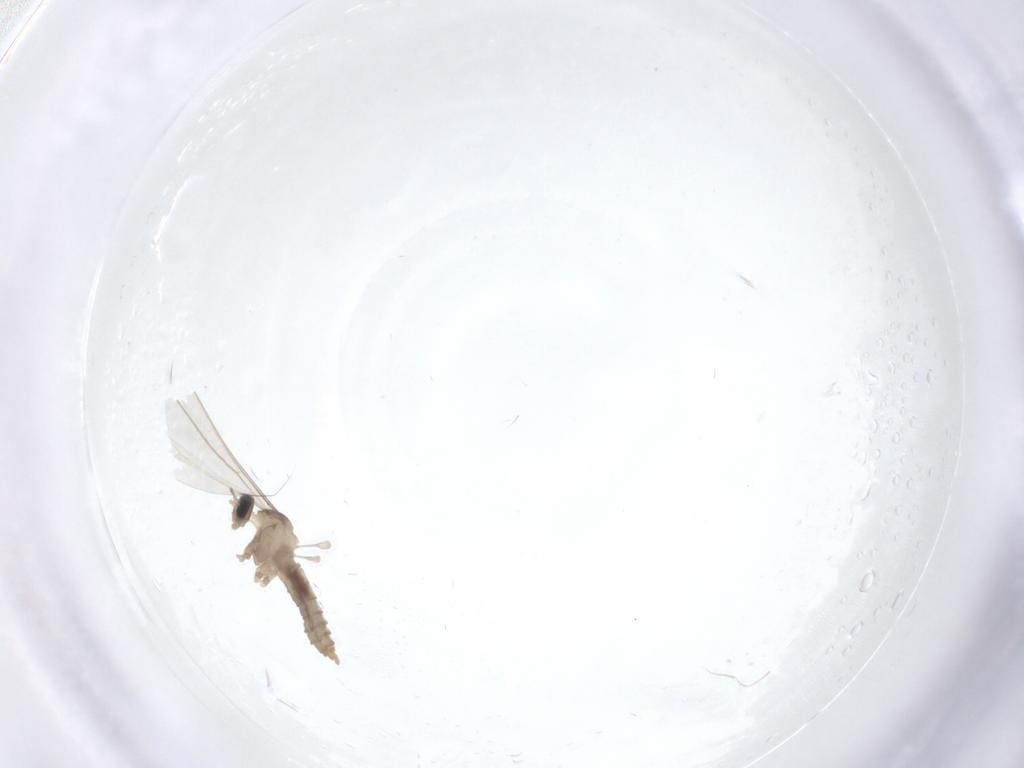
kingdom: Animalia
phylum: Arthropoda
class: Insecta
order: Diptera
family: Cecidomyiidae
